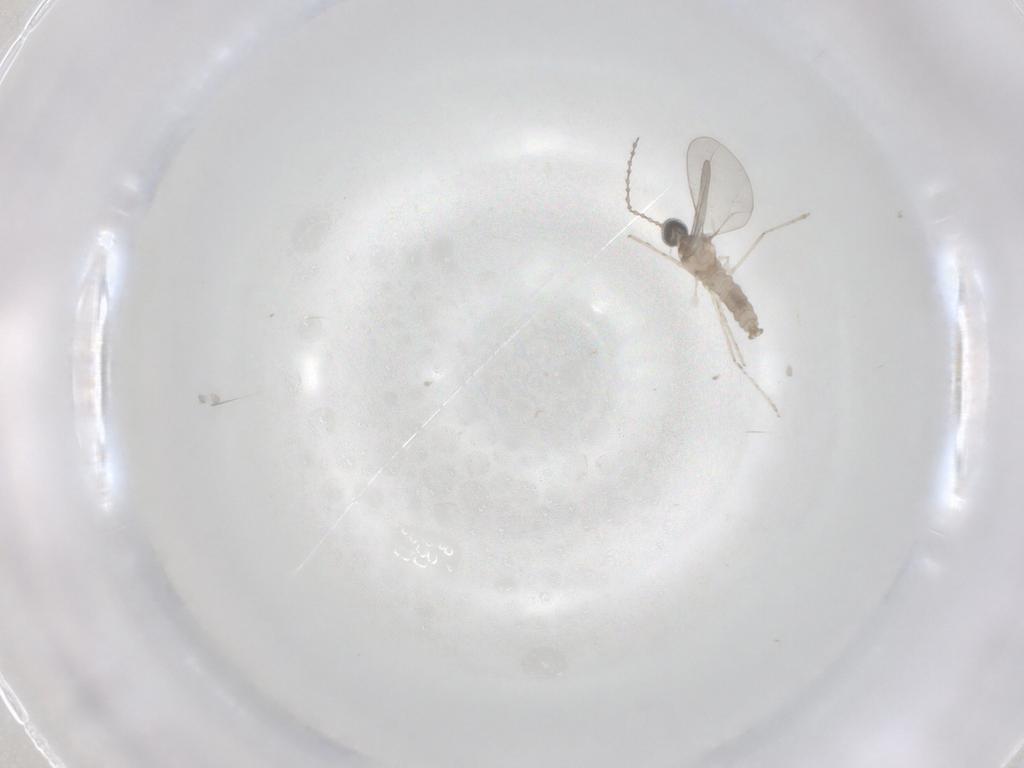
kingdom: Animalia
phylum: Arthropoda
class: Insecta
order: Diptera
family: Cecidomyiidae
